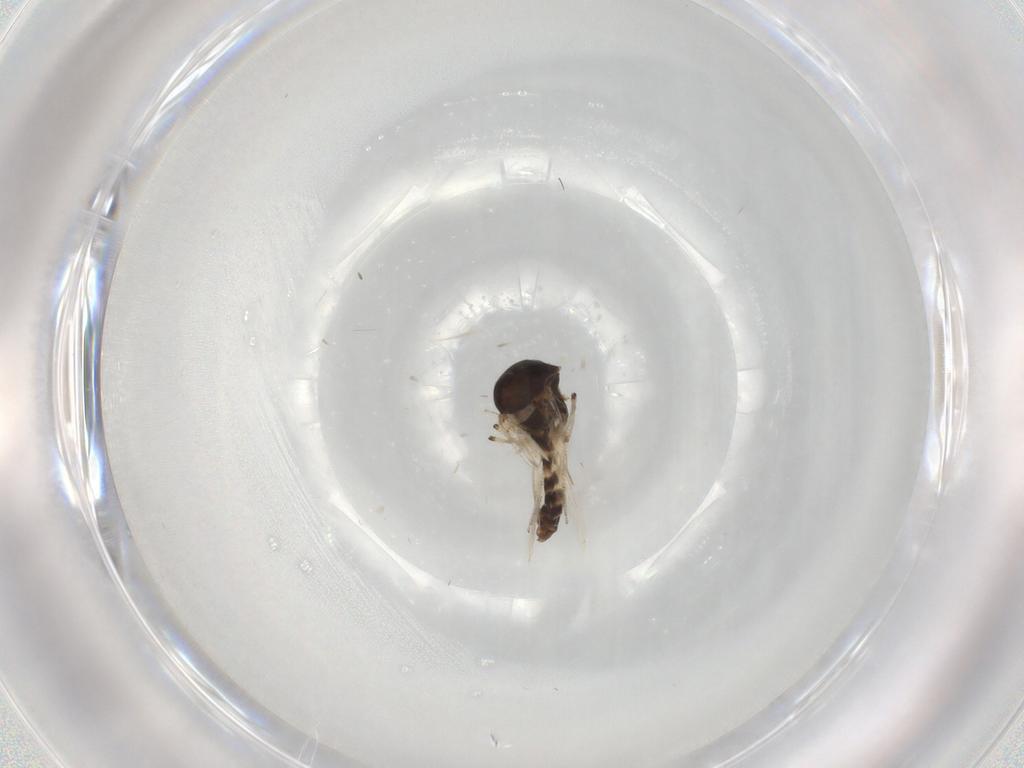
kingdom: Animalia
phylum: Arthropoda
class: Insecta
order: Diptera
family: Ceratopogonidae
